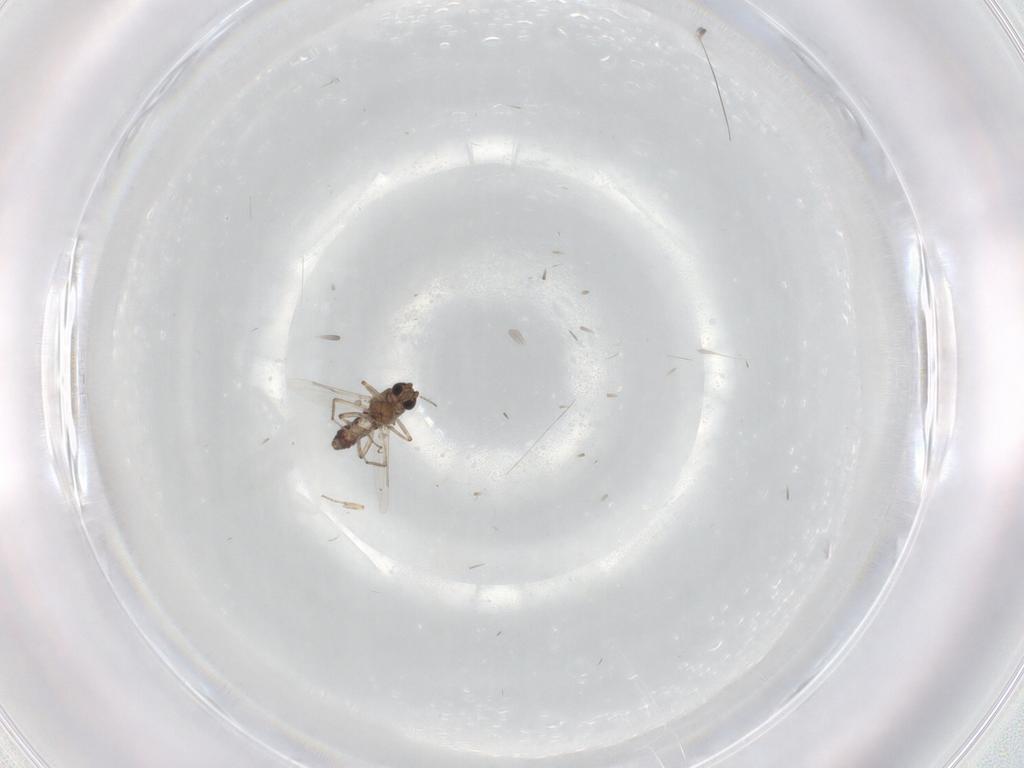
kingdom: Animalia
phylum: Arthropoda
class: Insecta
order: Diptera
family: Ceratopogonidae
